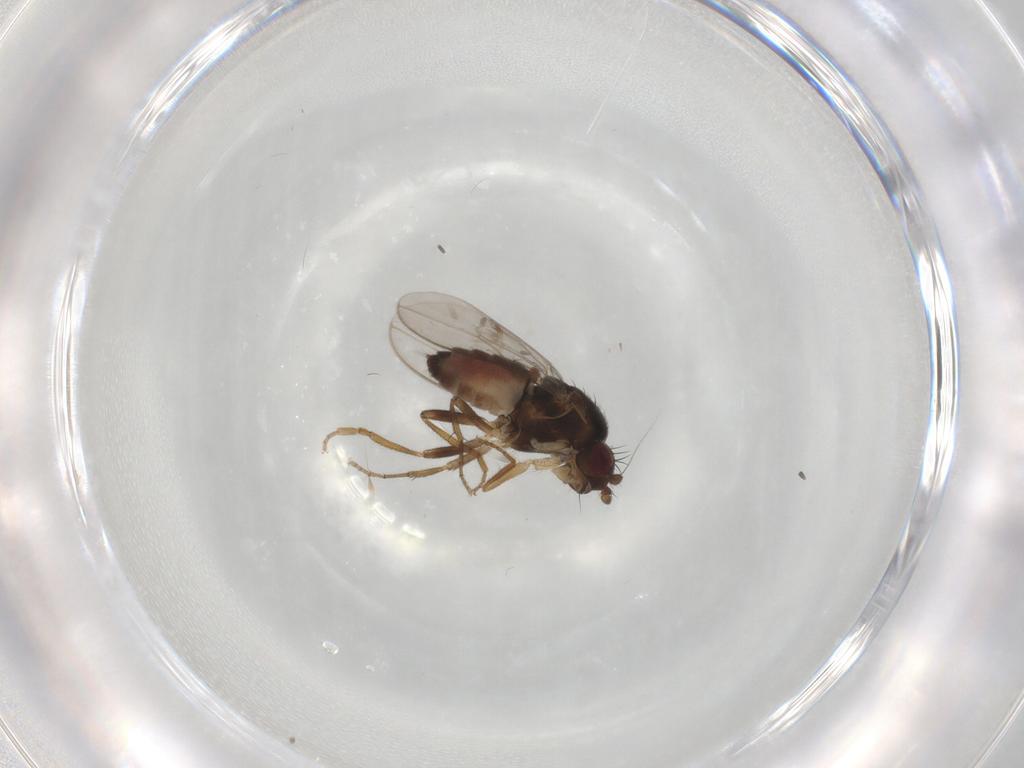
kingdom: Animalia
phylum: Arthropoda
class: Insecta
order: Diptera
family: Sphaeroceridae
